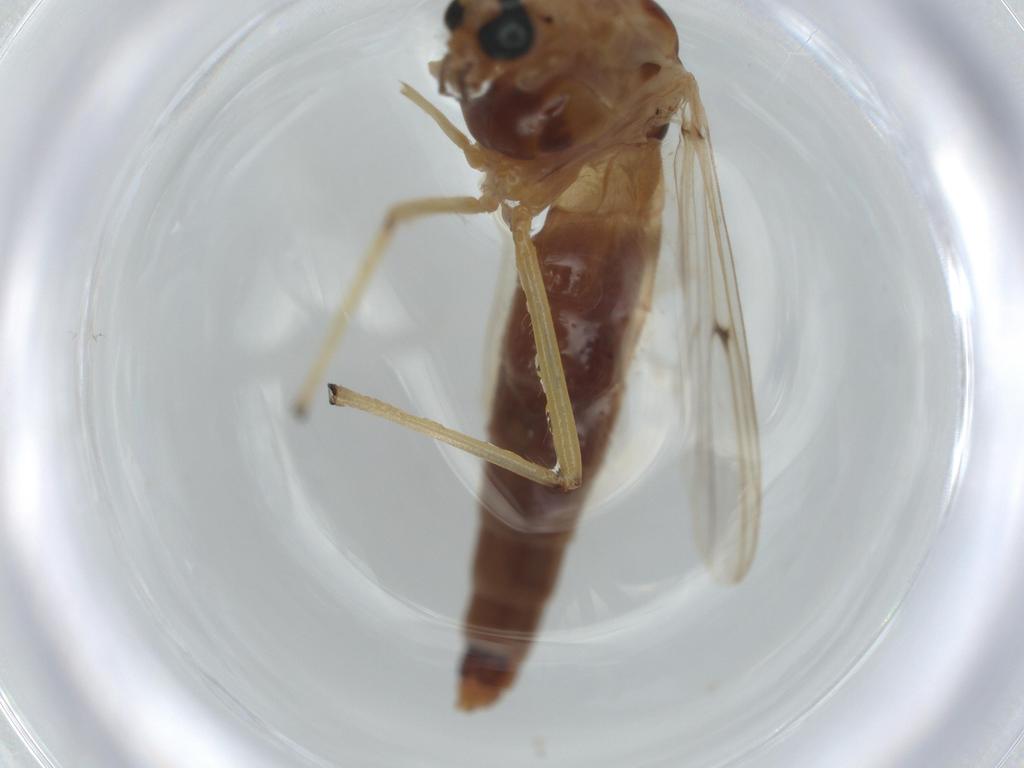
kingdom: Animalia
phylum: Arthropoda
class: Insecta
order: Diptera
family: Chironomidae
